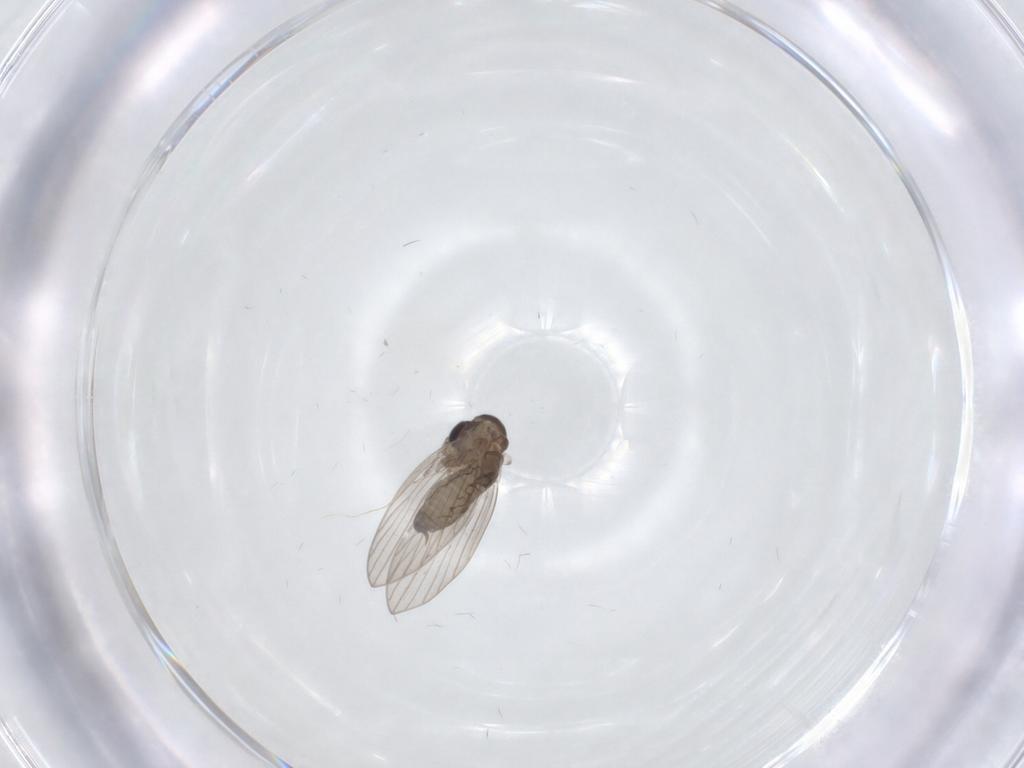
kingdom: Animalia
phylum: Arthropoda
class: Insecta
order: Diptera
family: Psychodidae
